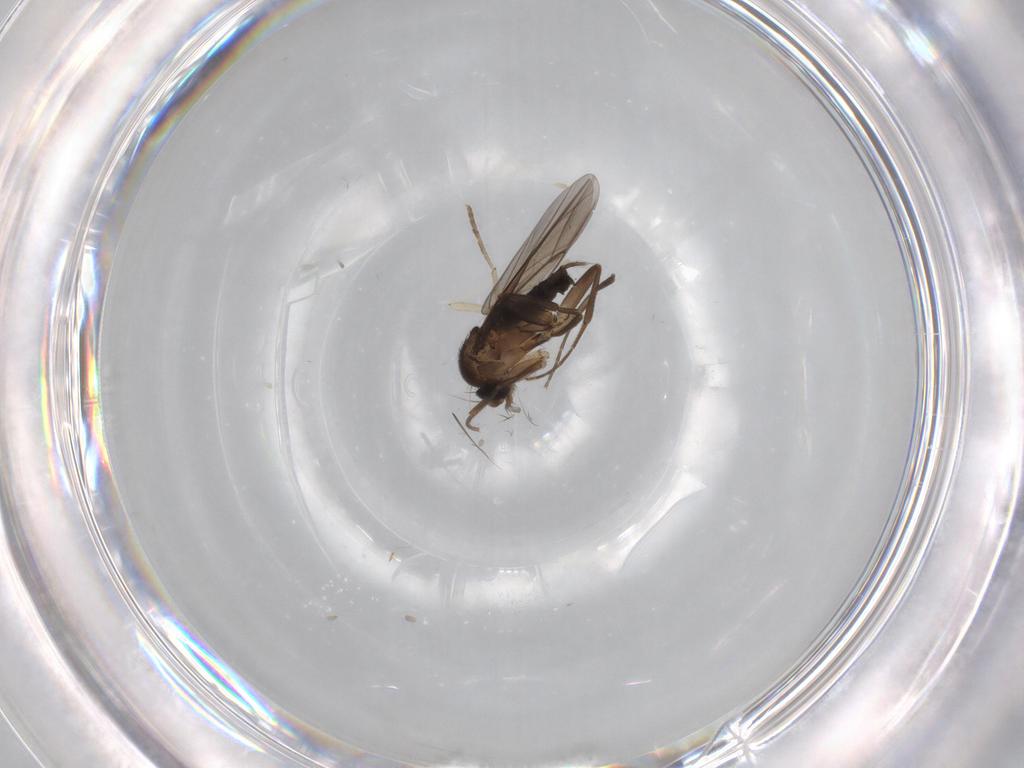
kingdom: Animalia
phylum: Arthropoda
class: Insecta
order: Diptera
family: Phoridae
